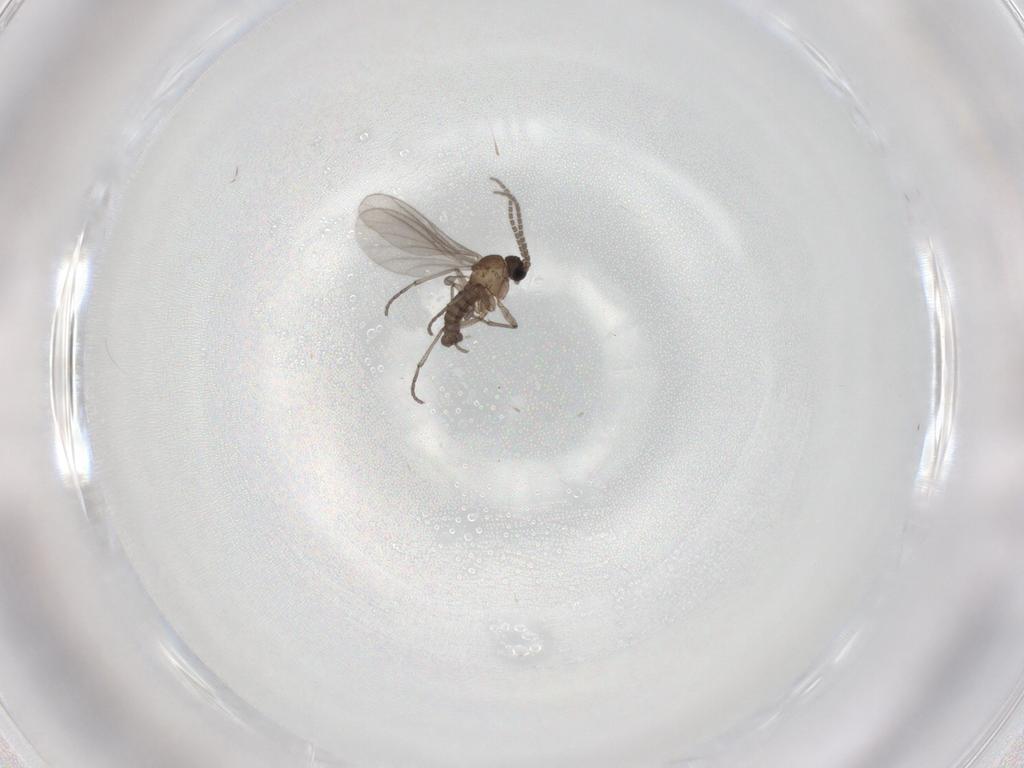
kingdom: Animalia
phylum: Arthropoda
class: Insecta
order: Diptera
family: Sciaridae
